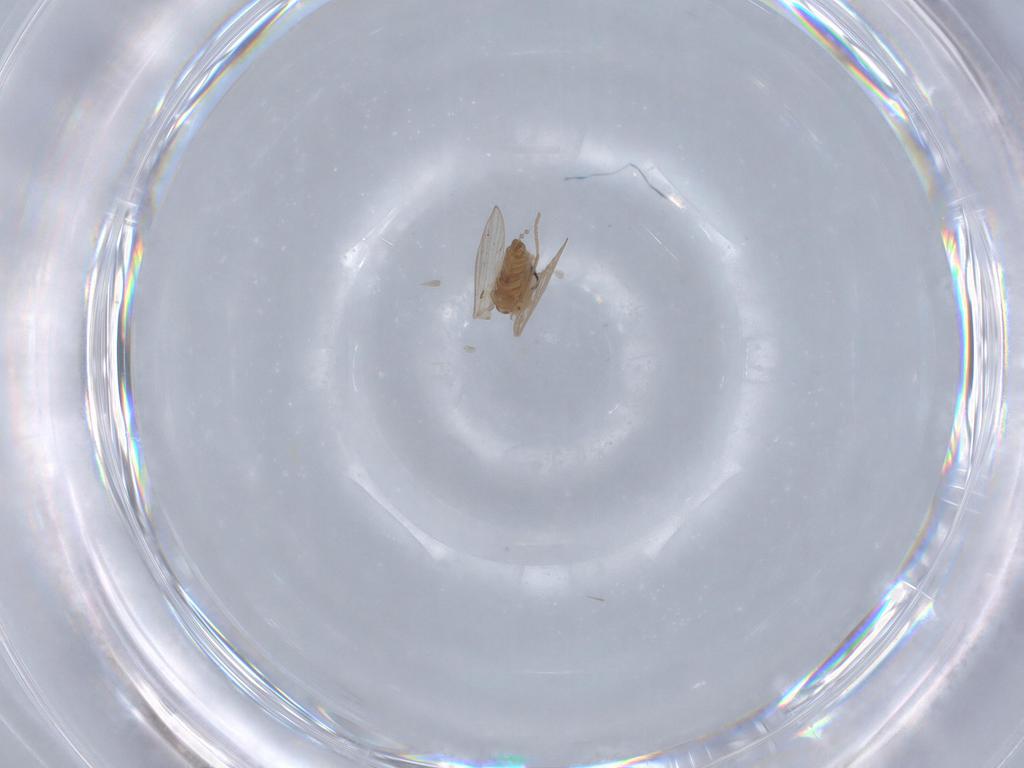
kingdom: Animalia
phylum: Arthropoda
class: Insecta
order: Diptera
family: Psychodidae
